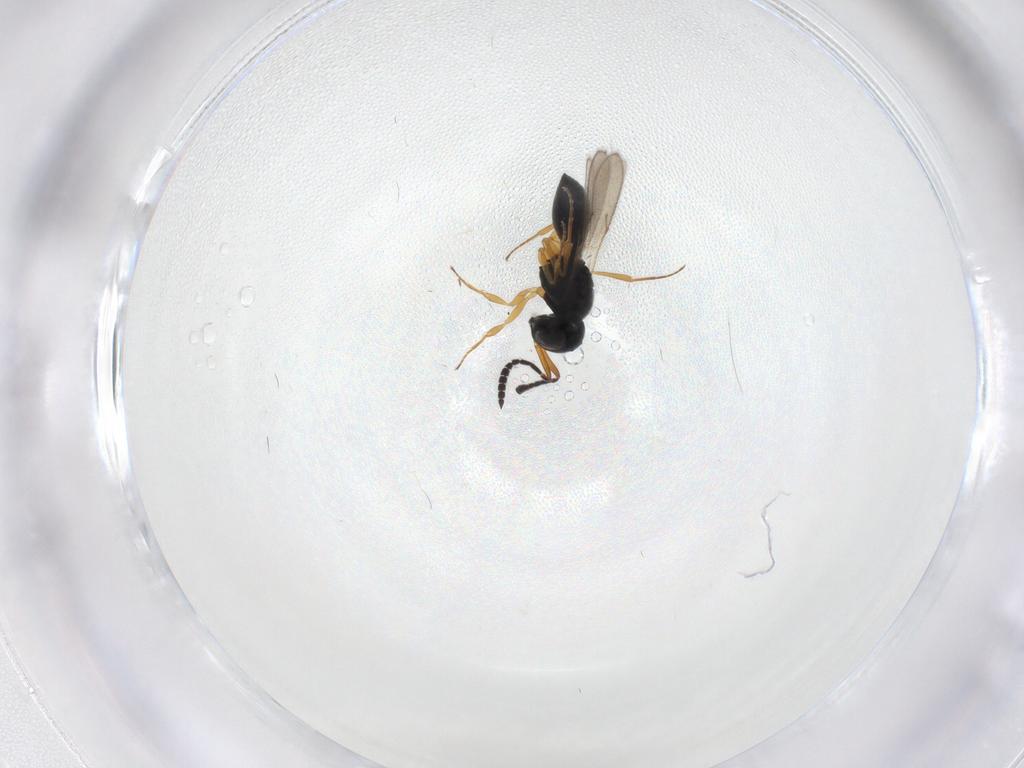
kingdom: Animalia
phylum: Arthropoda
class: Insecta
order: Hymenoptera
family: Scelionidae
